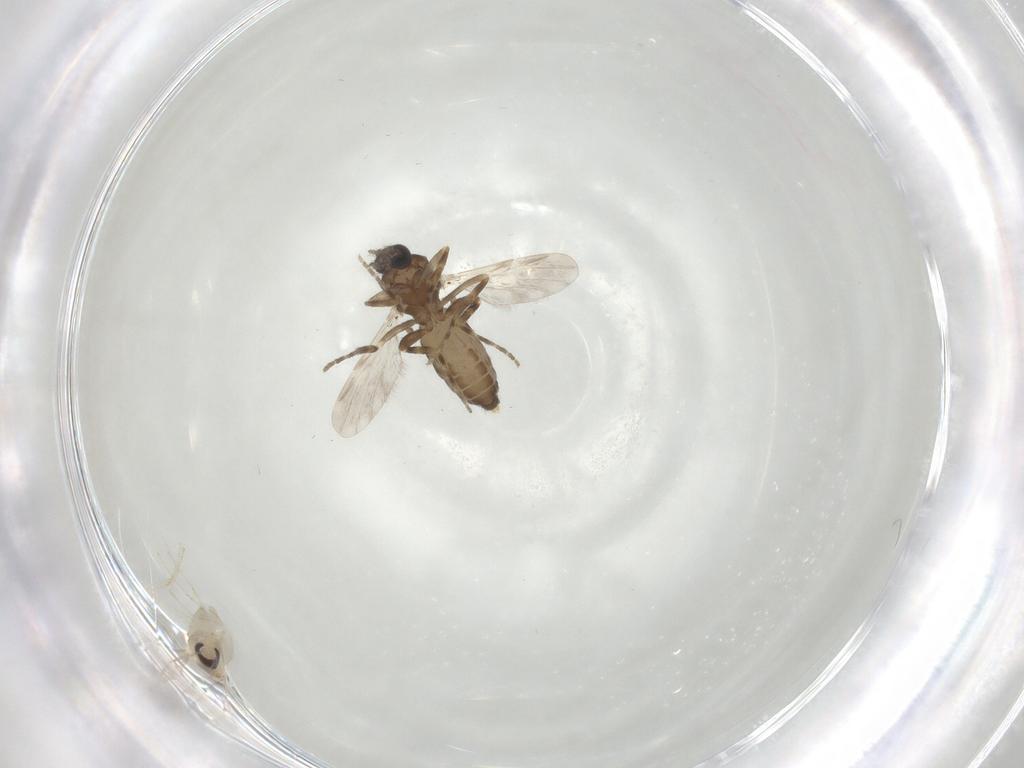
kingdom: Animalia
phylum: Arthropoda
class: Insecta
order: Diptera
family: Cecidomyiidae
